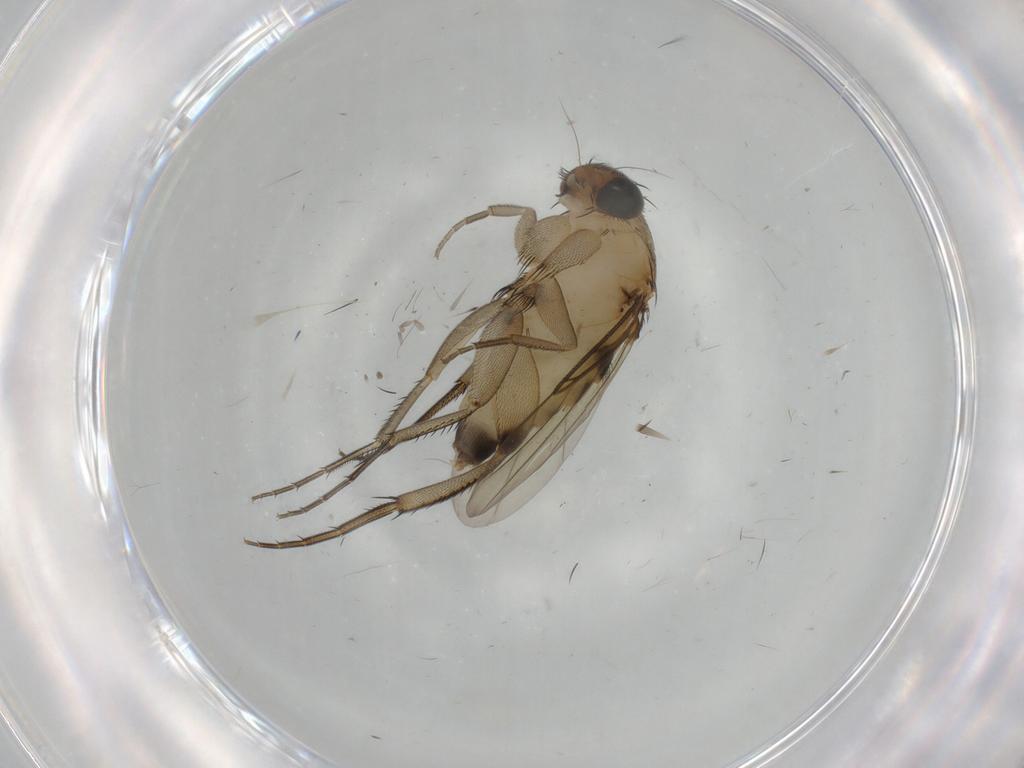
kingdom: Animalia
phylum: Arthropoda
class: Insecta
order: Diptera
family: Phoridae
